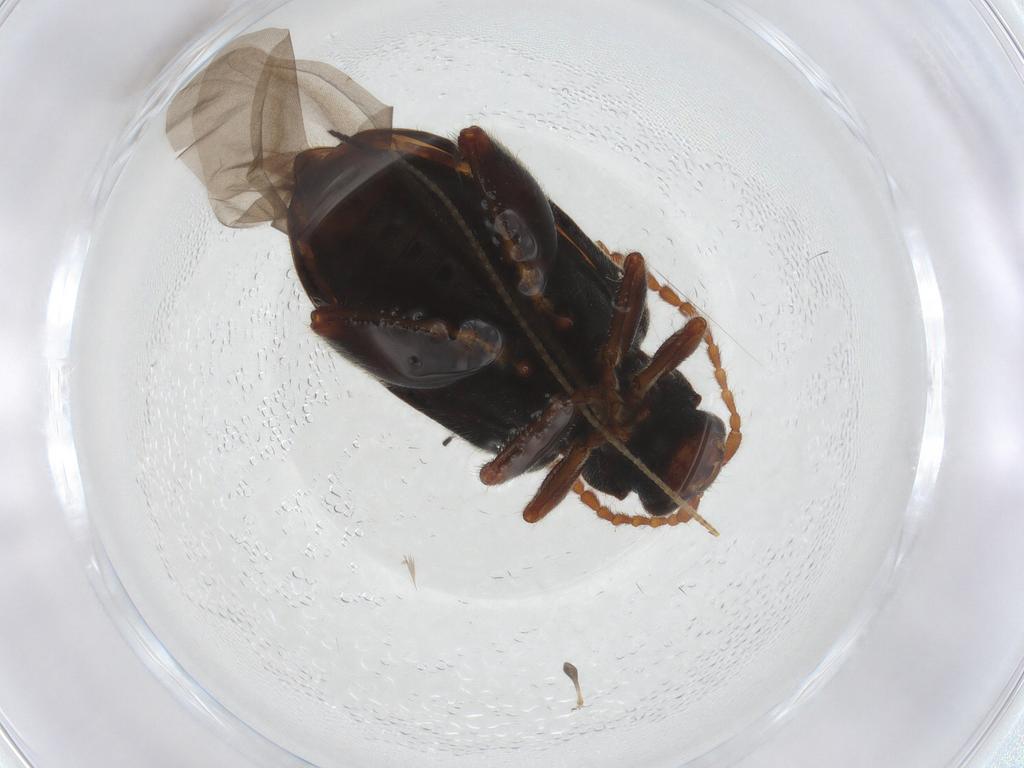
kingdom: Animalia
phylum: Arthropoda
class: Insecta
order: Coleoptera
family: Chrysomelidae
